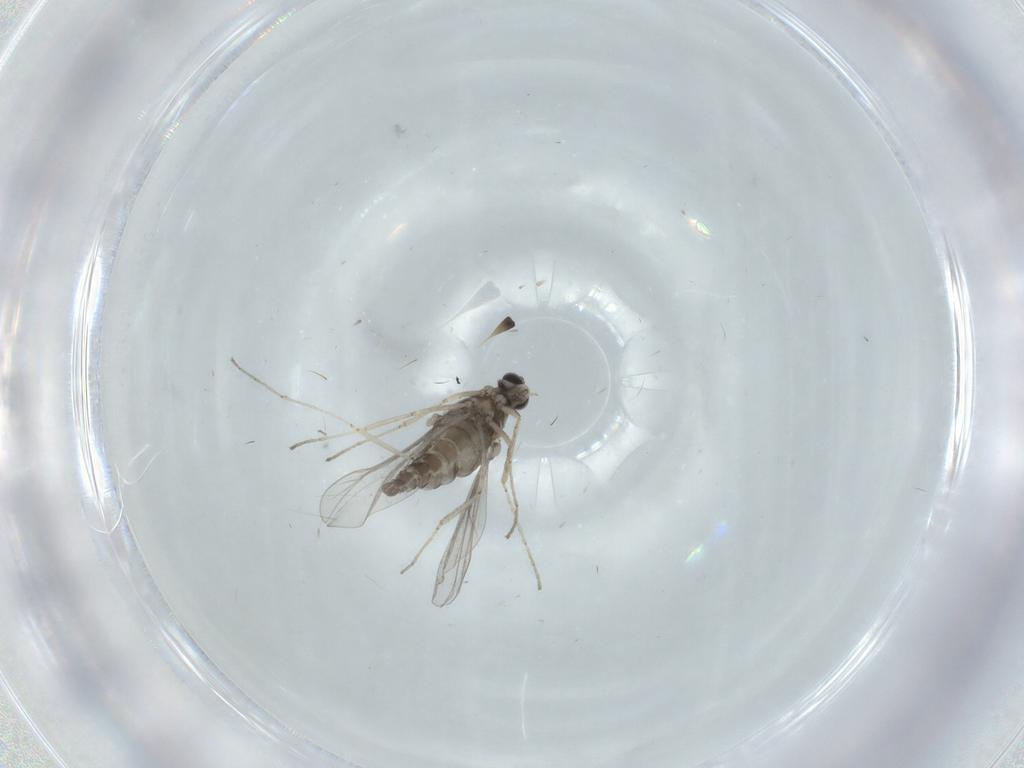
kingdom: Animalia
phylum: Arthropoda
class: Insecta
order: Diptera
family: Cecidomyiidae
